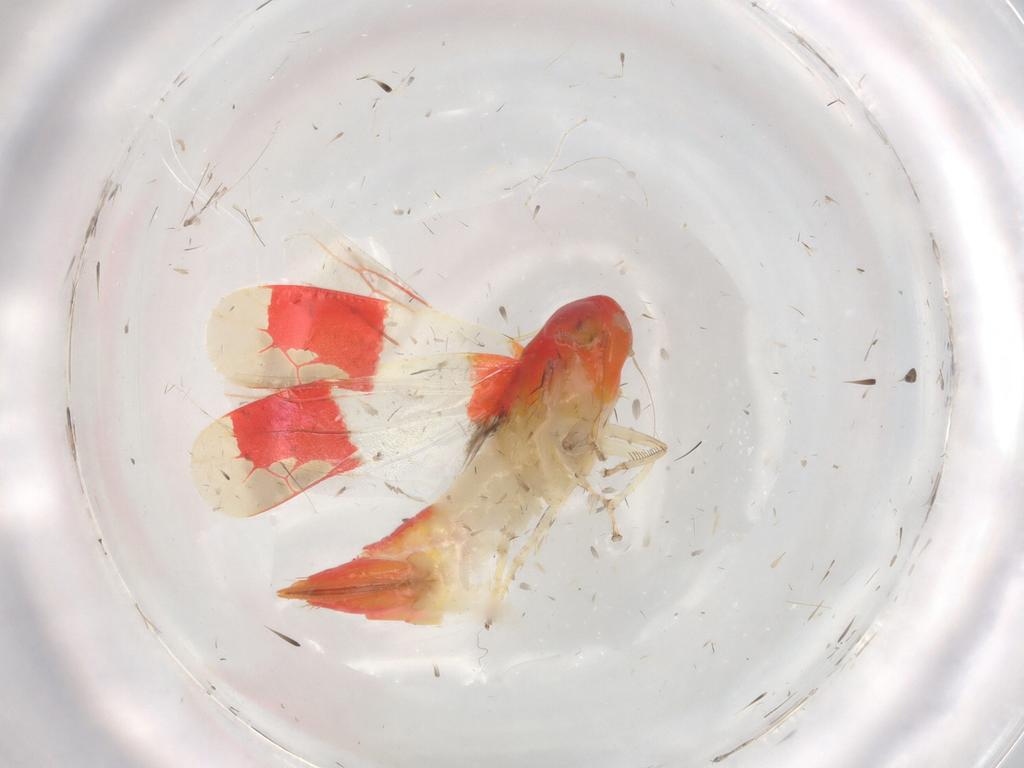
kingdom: Animalia
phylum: Arthropoda
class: Insecta
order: Hemiptera
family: Cicadellidae
